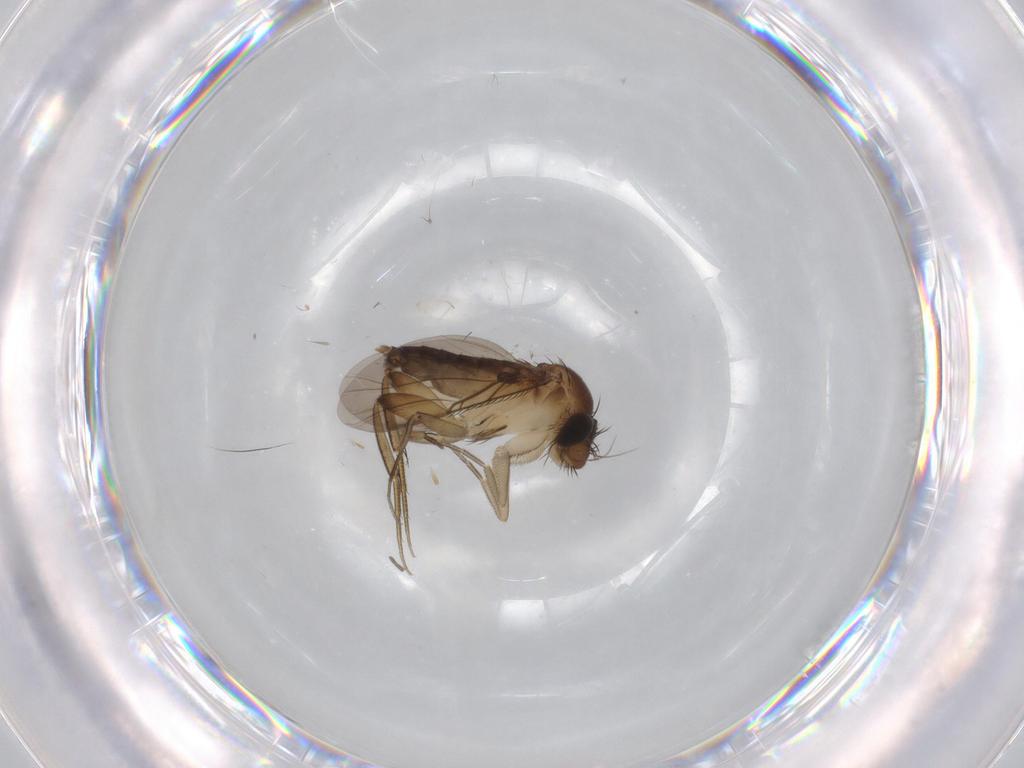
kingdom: Animalia
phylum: Arthropoda
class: Insecta
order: Diptera
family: Phoridae
